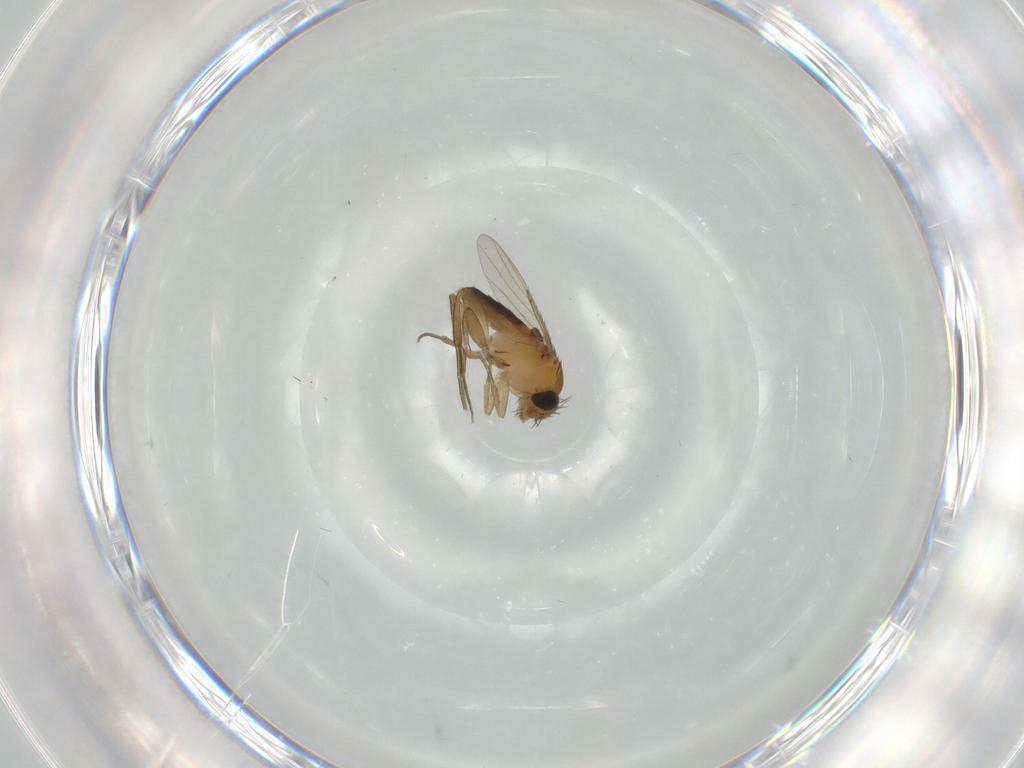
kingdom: Animalia
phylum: Arthropoda
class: Insecta
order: Diptera
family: Phoridae
